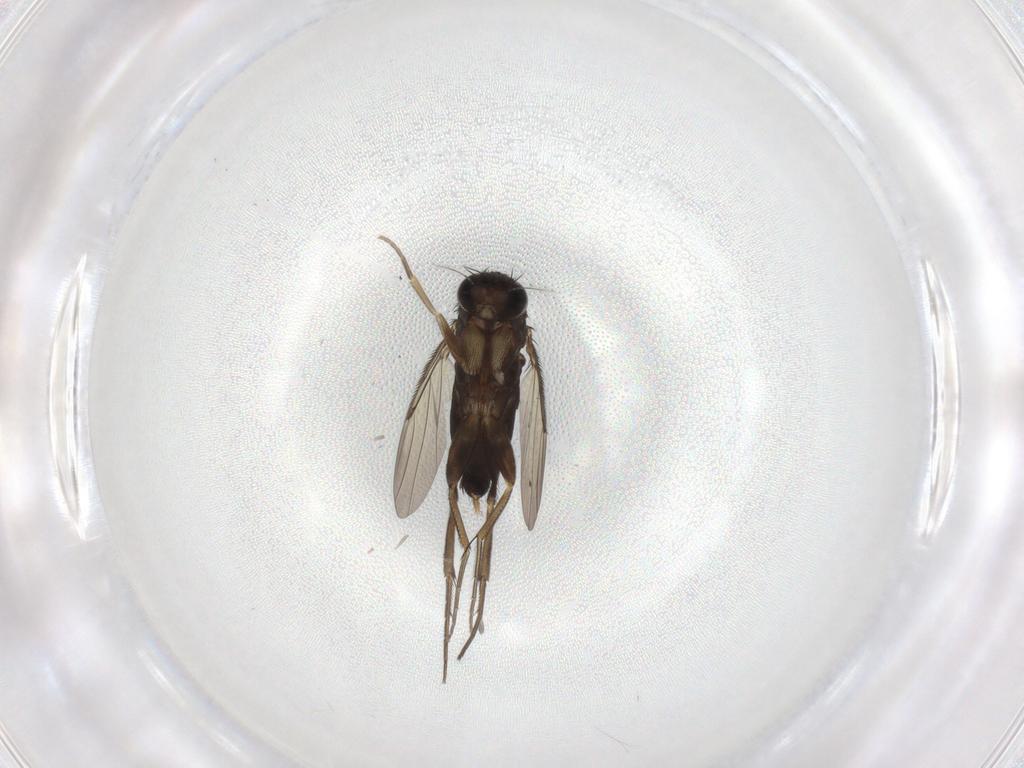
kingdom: Animalia
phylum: Arthropoda
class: Insecta
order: Diptera
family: Phoridae
